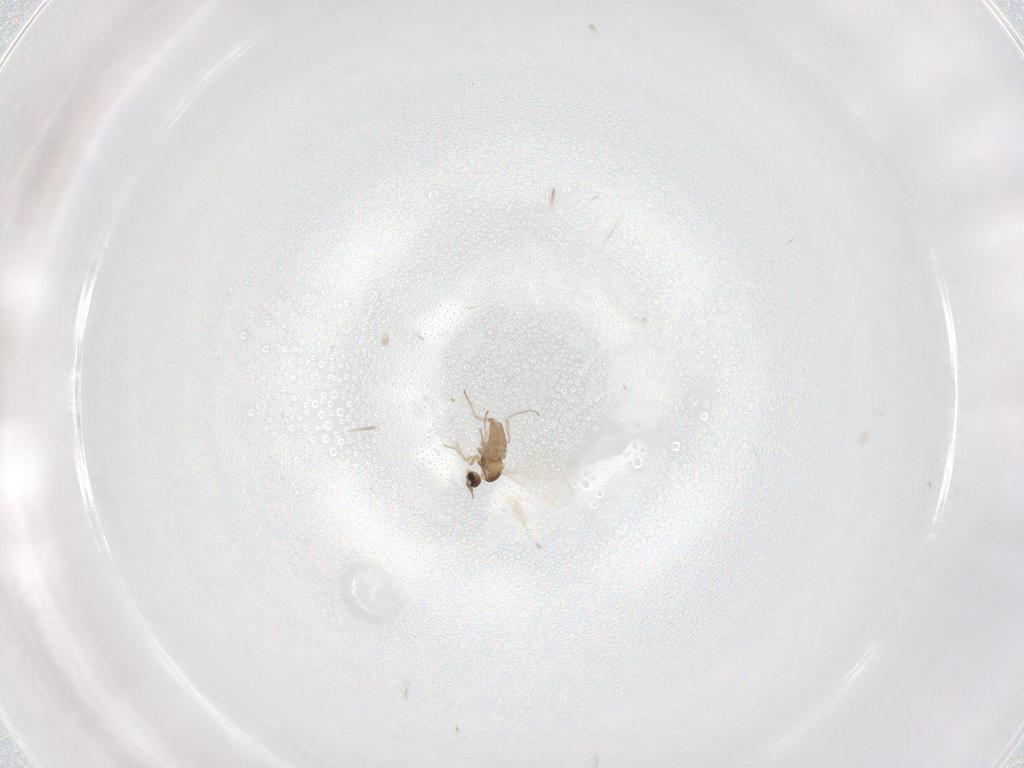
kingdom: Animalia
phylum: Arthropoda
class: Insecta
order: Diptera
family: Cecidomyiidae
